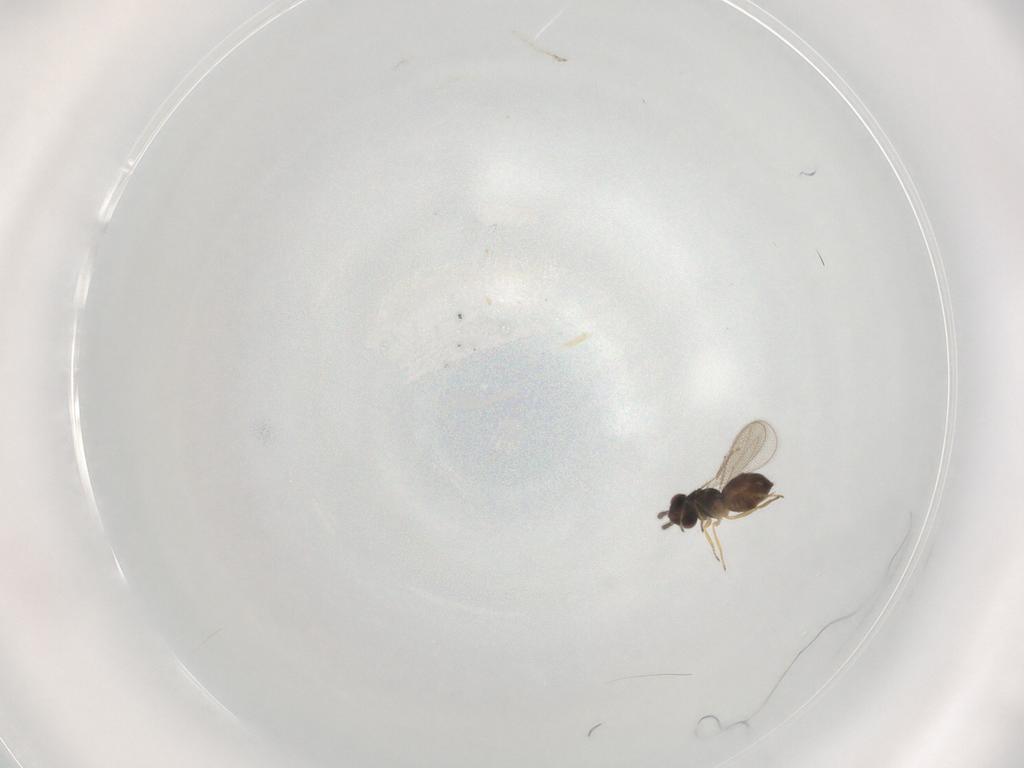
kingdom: Animalia
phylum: Arthropoda
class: Insecta
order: Hymenoptera
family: Eulophidae
